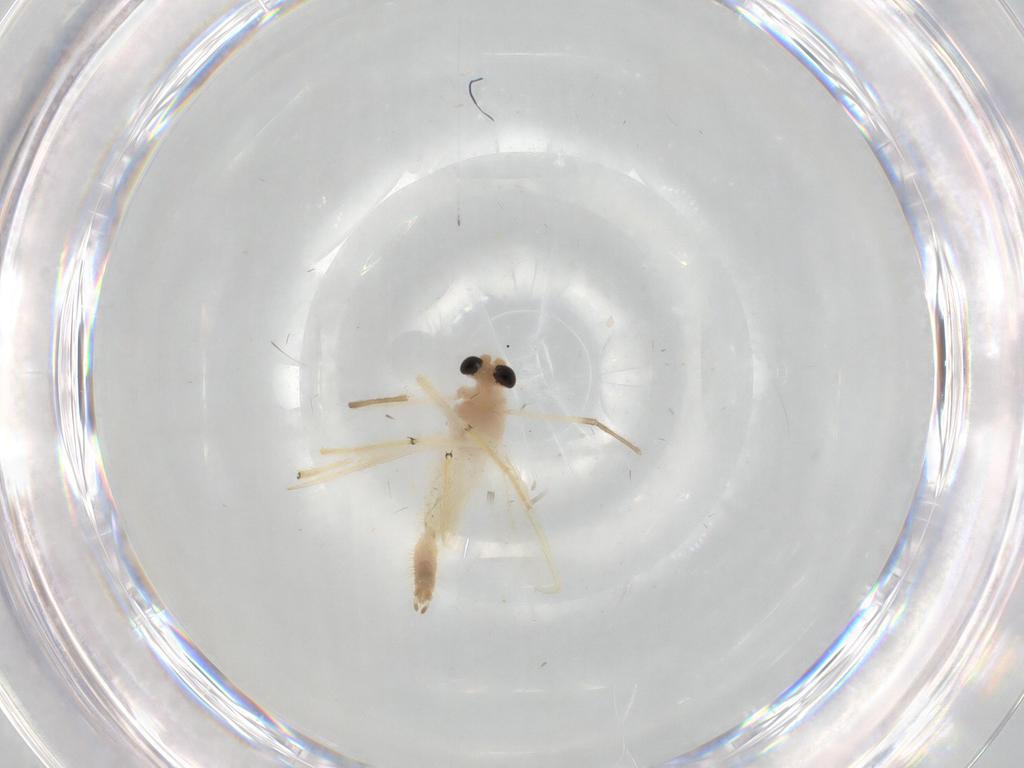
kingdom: Animalia
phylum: Arthropoda
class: Insecta
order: Diptera
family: Chironomidae
